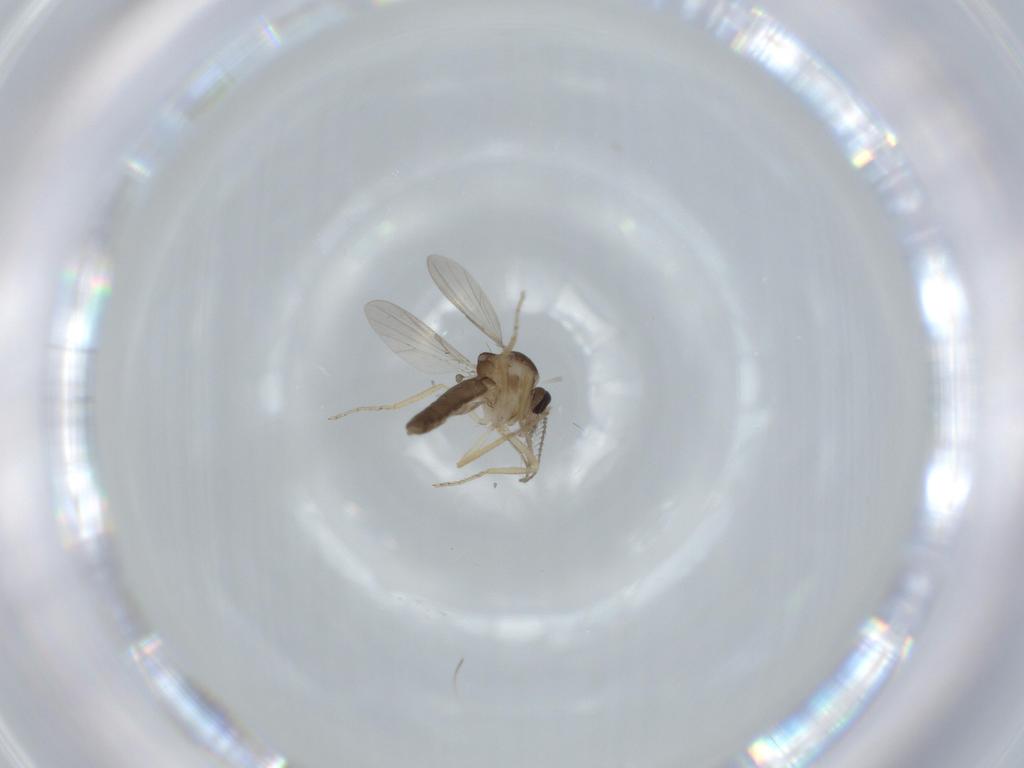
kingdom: Animalia
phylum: Arthropoda
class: Insecta
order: Diptera
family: Ceratopogonidae
